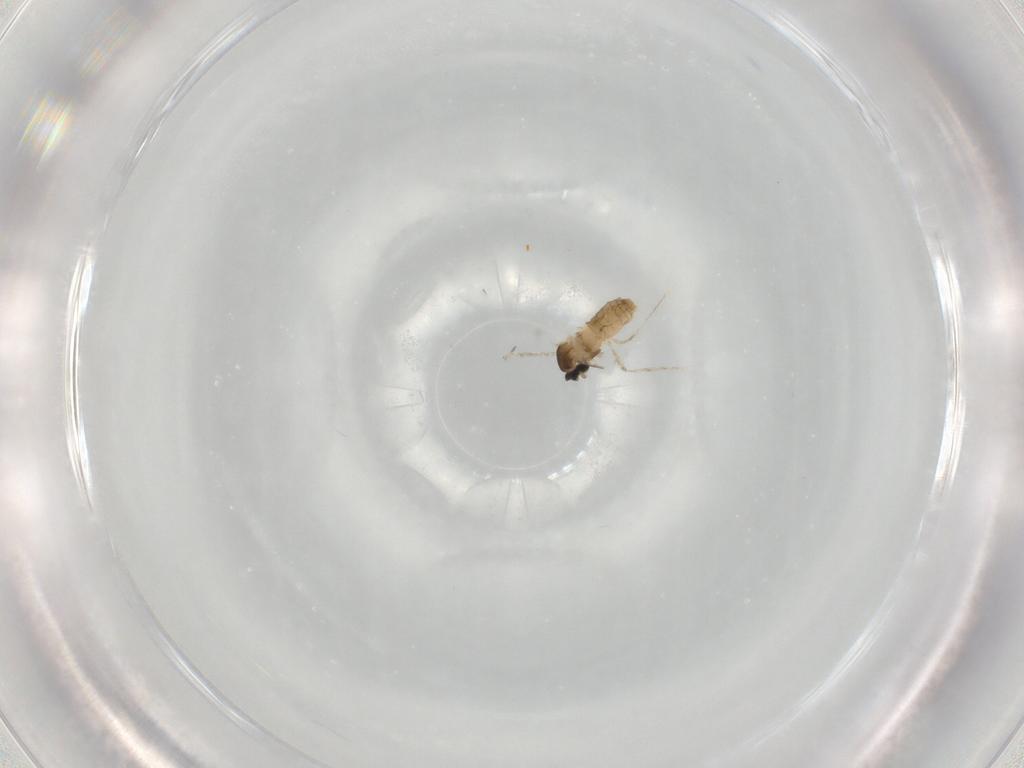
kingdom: Animalia
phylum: Arthropoda
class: Insecta
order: Diptera
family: Cecidomyiidae
